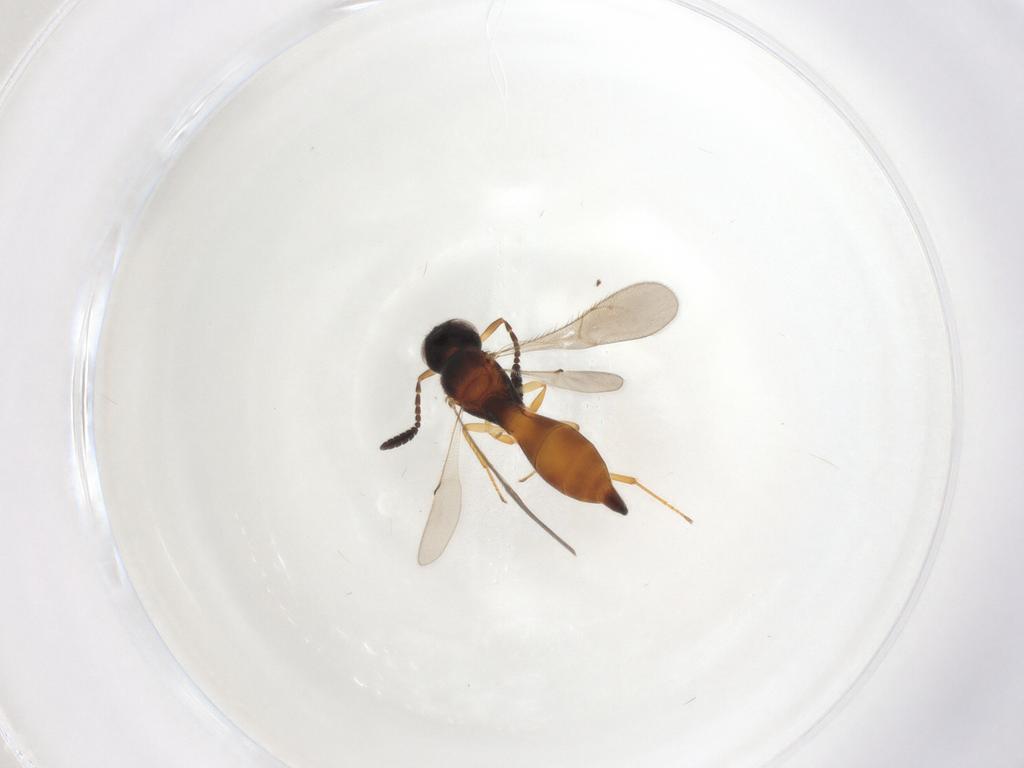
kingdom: Animalia
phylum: Arthropoda
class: Insecta
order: Hymenoptera
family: Scelionidae
